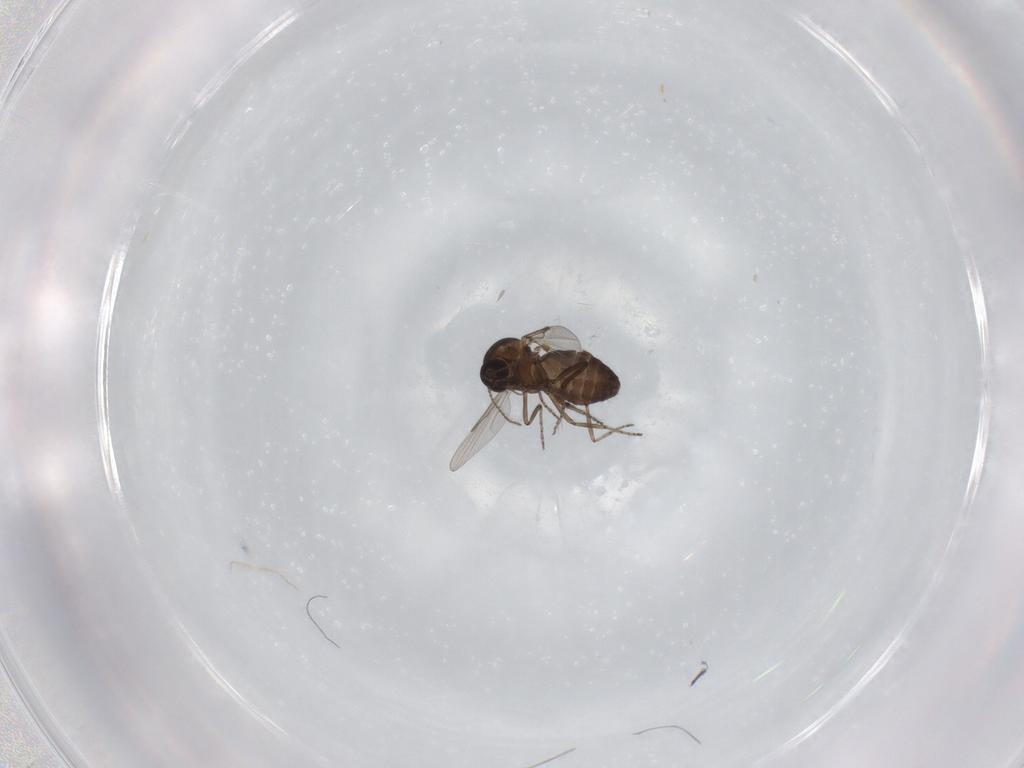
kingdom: Animalia
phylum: Arthropoda
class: Insecta
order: Diptera
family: Ceratopogonidae
